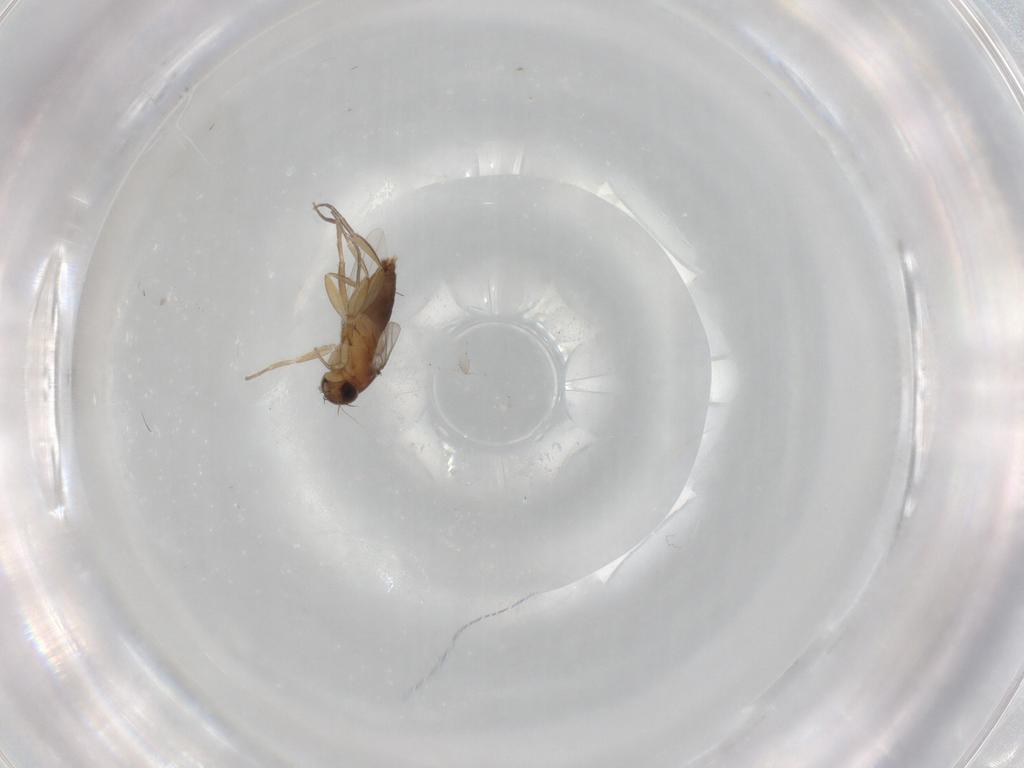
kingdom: Animalia
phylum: Arthropoda
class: Insecta
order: Diptera
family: Phoridae
